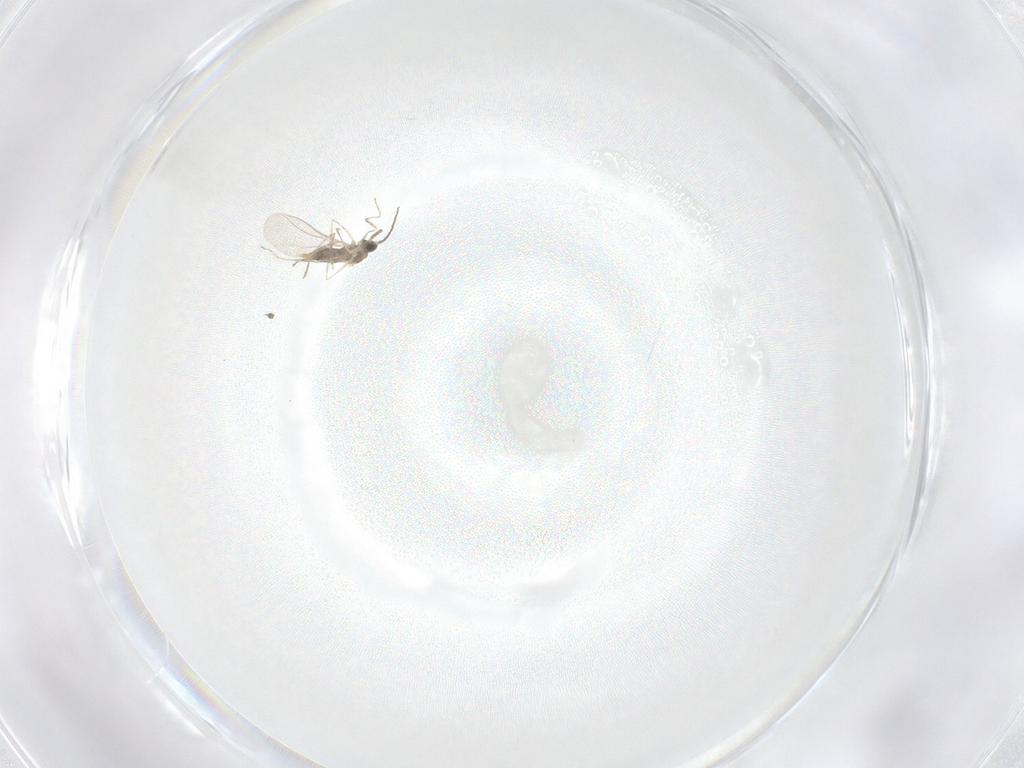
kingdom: Animalia
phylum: Arthropoda
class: Insecta
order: Diptera
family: Cecidomyiidae
